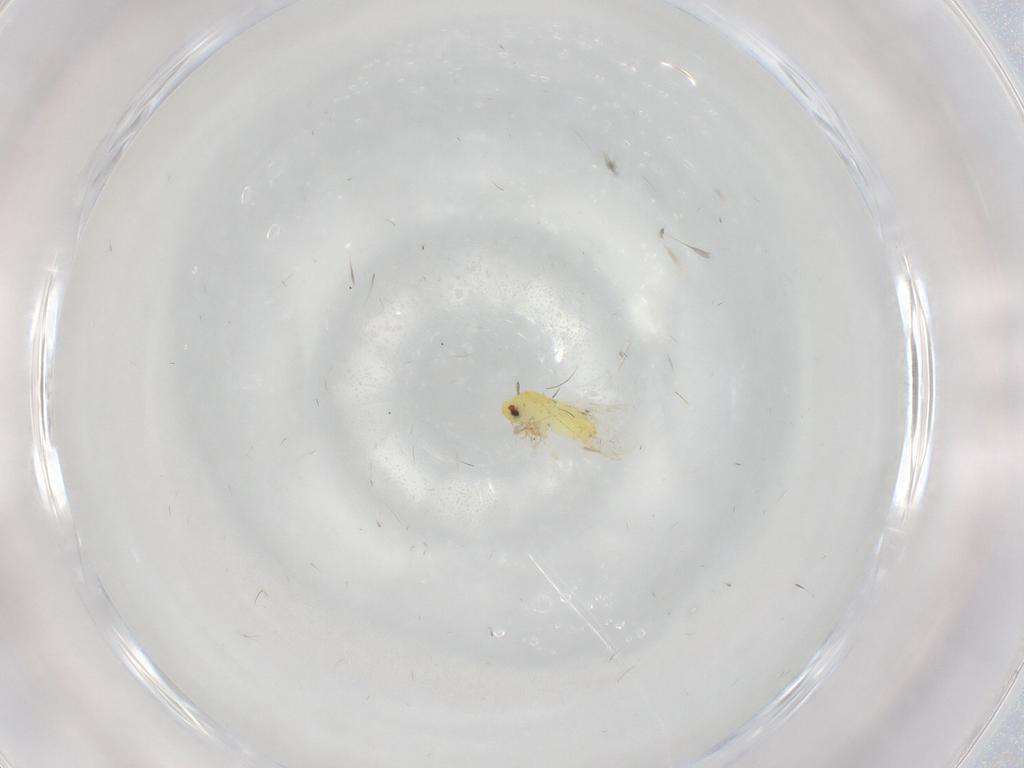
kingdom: Animalia
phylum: Arthropoda
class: Insecta
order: Hemiptera
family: Aleyrodidae
